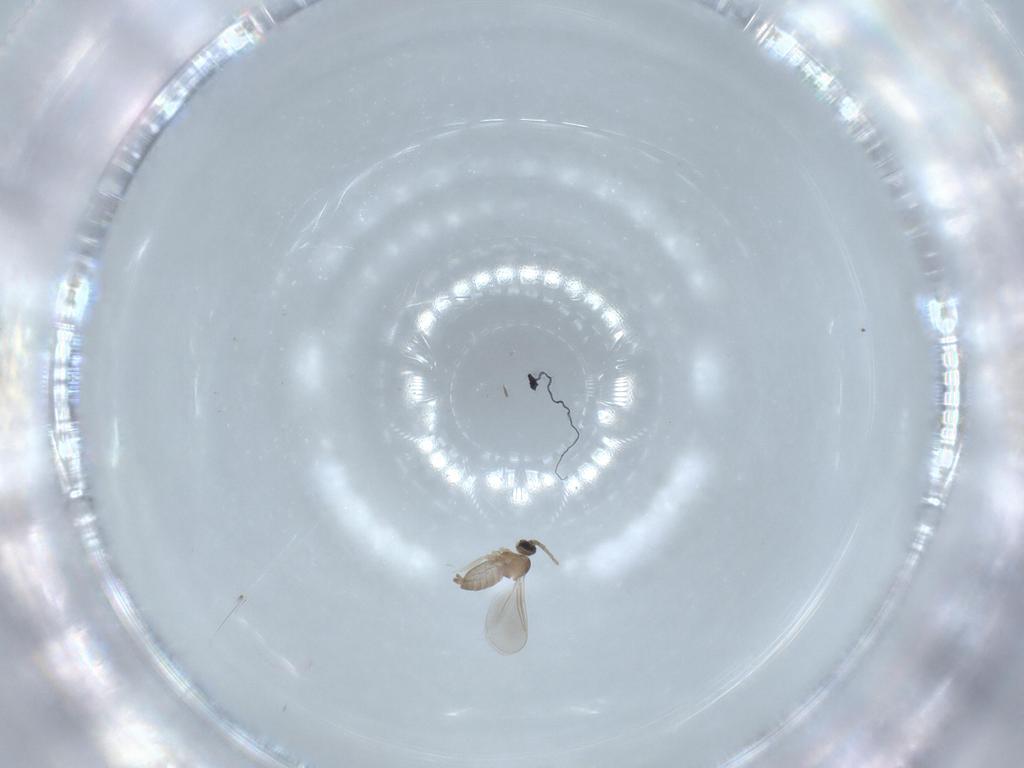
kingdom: Animalia
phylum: Arthropoda
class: Insecta
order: Diptera
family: Cecidomyiidae
